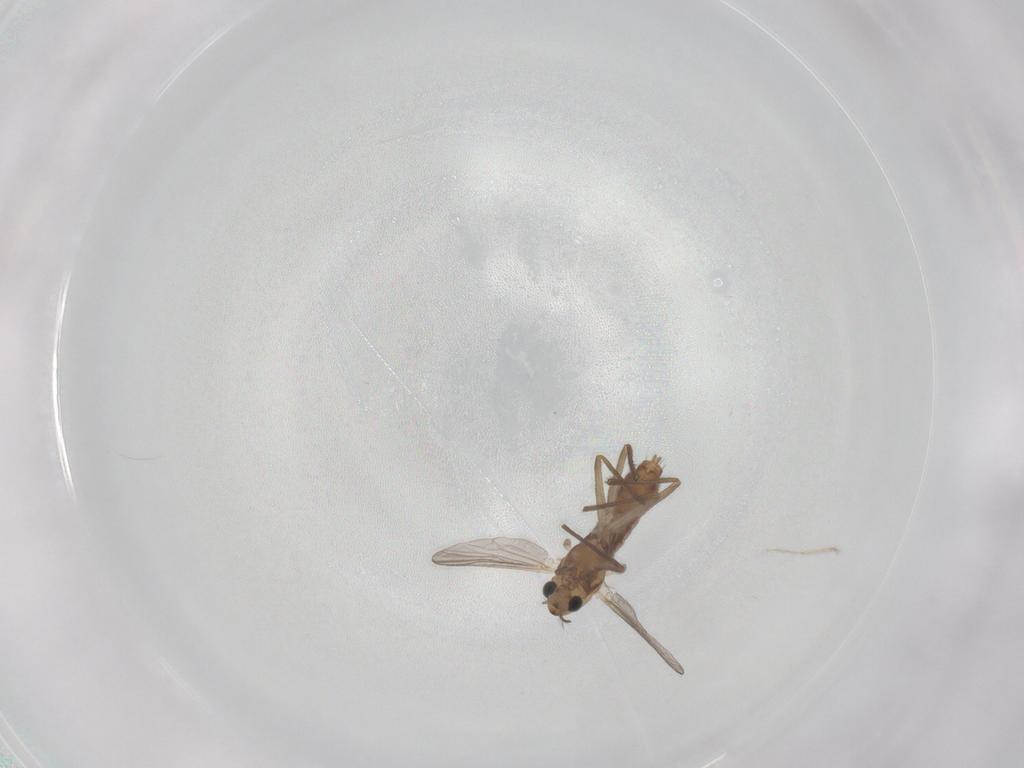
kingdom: Animalia
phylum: Arthropoda
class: Insecta
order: Diptera
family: Chironomidae
